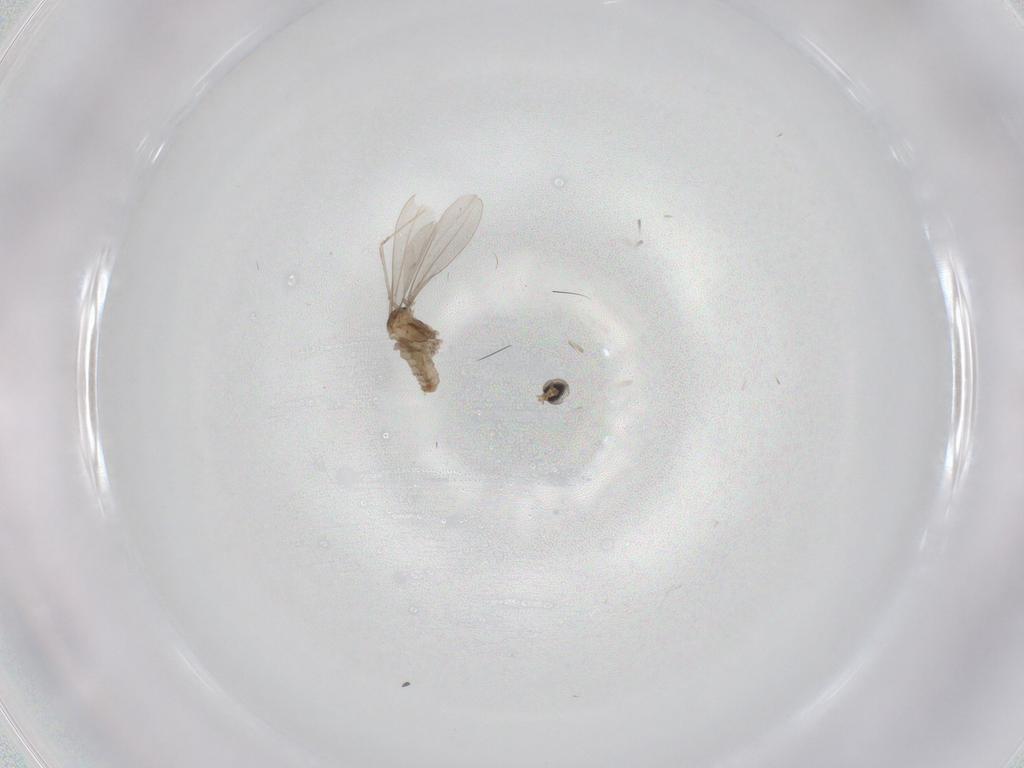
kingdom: Animalia
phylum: Arthropoda
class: Insecta
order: Diptera
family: Cecidomyiidae
